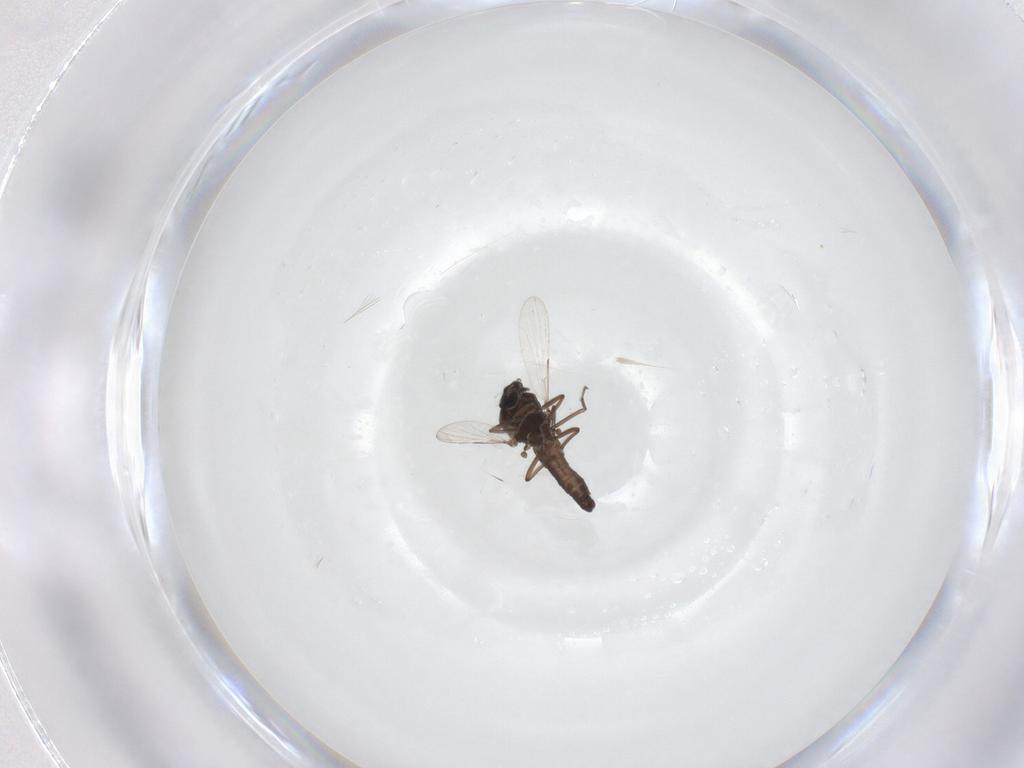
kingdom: Animalia
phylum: Arthropoda
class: Insecta
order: Diptera
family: Ceratopogonidae
